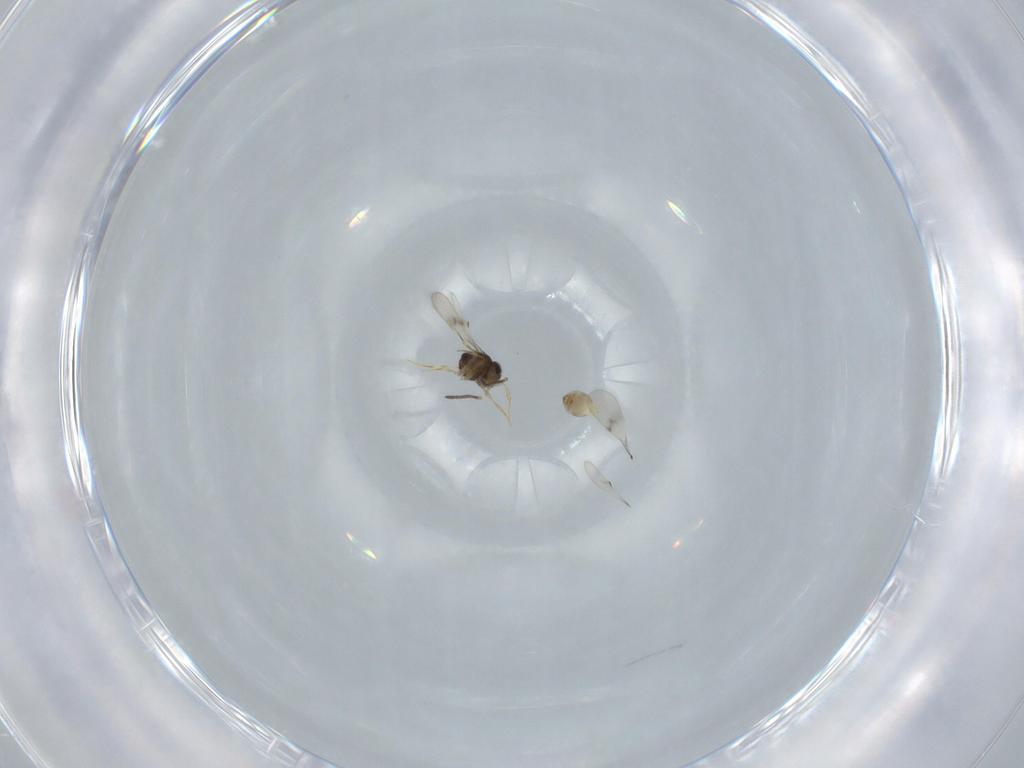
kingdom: Animalia
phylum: Arthropoda
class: Insecta
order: Hymenoptera
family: Scelionidae
